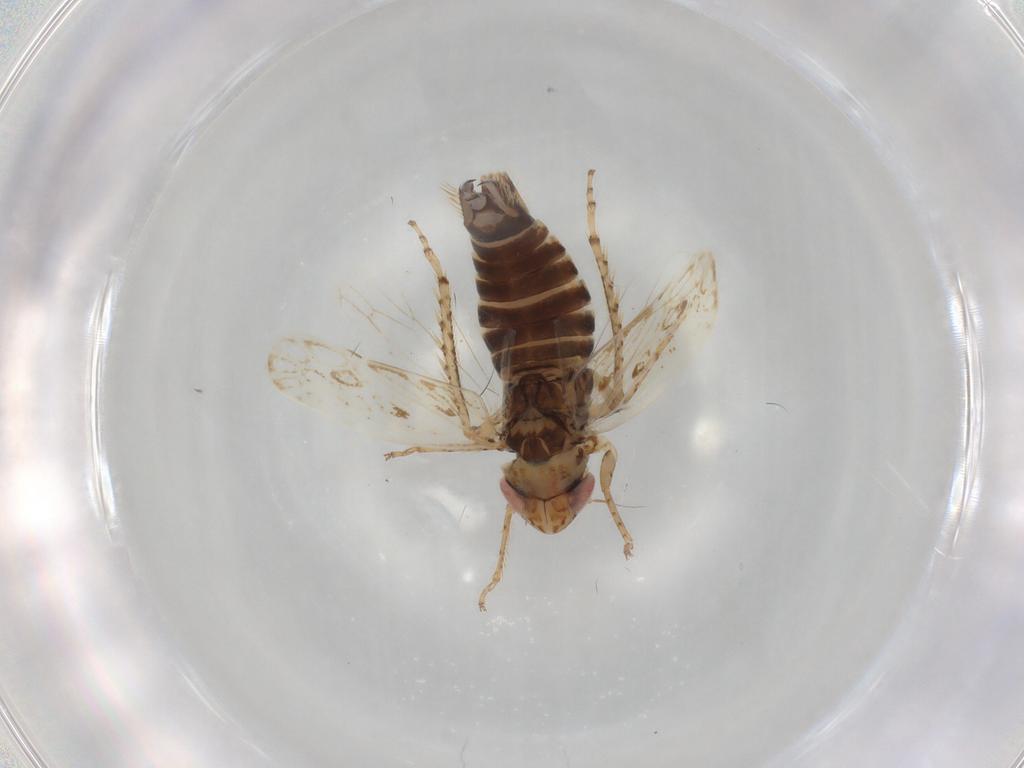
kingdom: Animalia
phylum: Arthropoda
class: Insecta
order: Hemiptera
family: Cicadellidae
